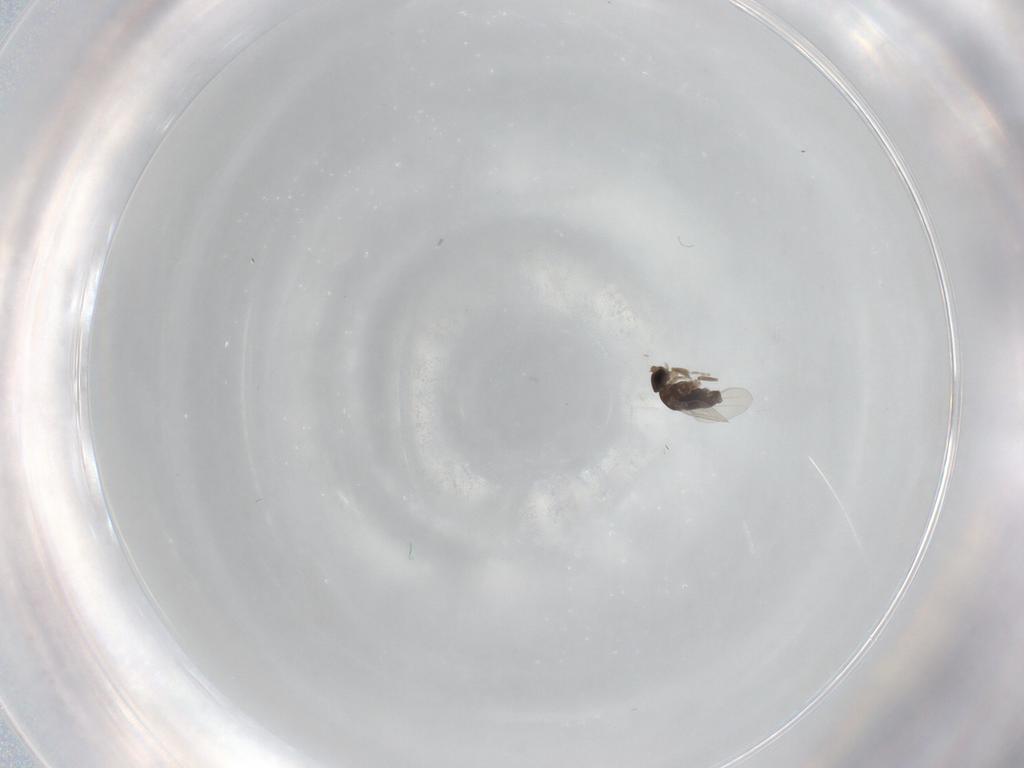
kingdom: Animalia
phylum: Arthropoda
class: Insecta
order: Diptera
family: Phoridae
